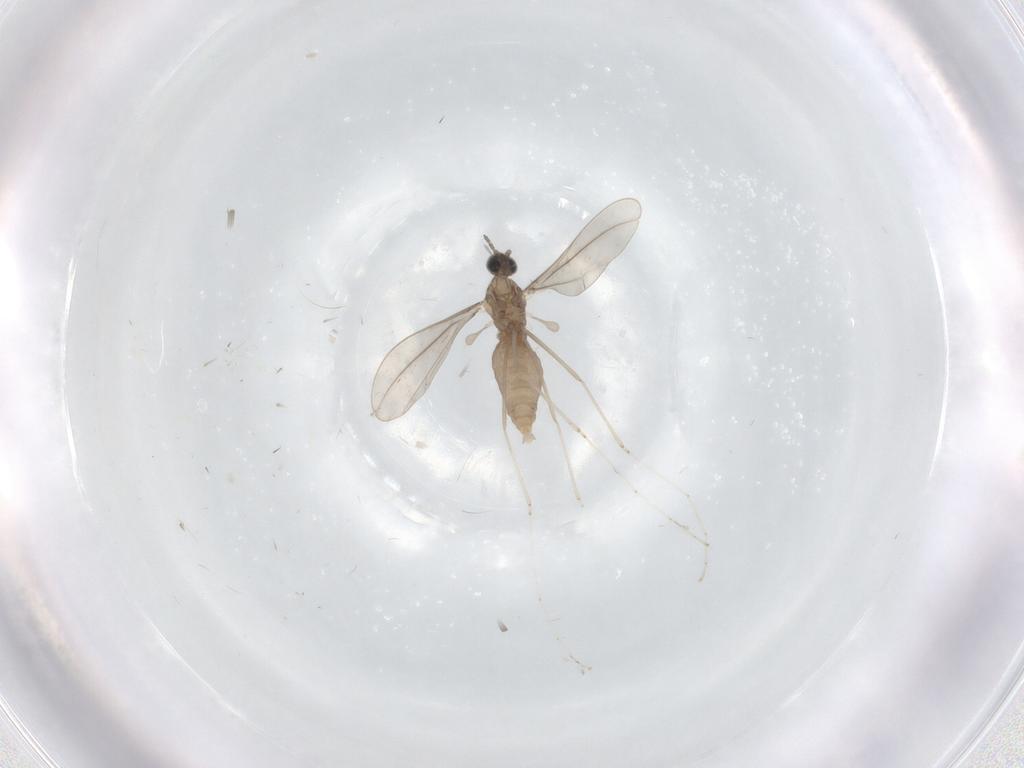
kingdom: Animalia
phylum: Arthropoda
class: Insecta
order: Diptera
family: Cecidomyiidae
